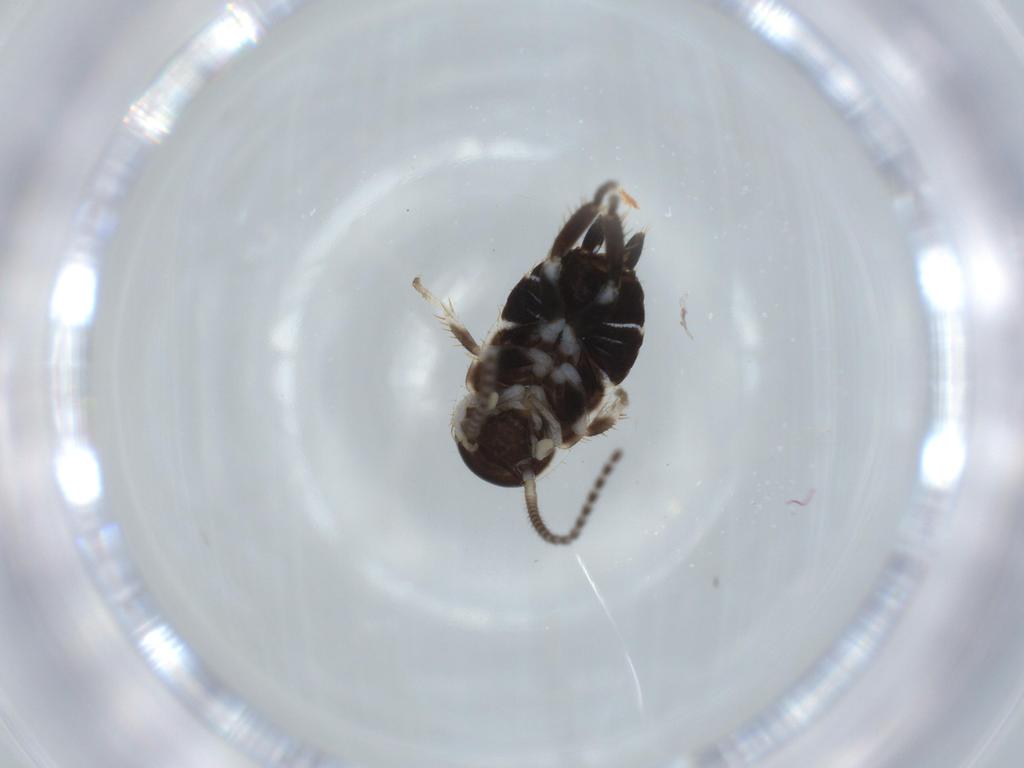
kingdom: Animalia
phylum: Arthropoda
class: Insecta
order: Blattodea
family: Ectobiidae
